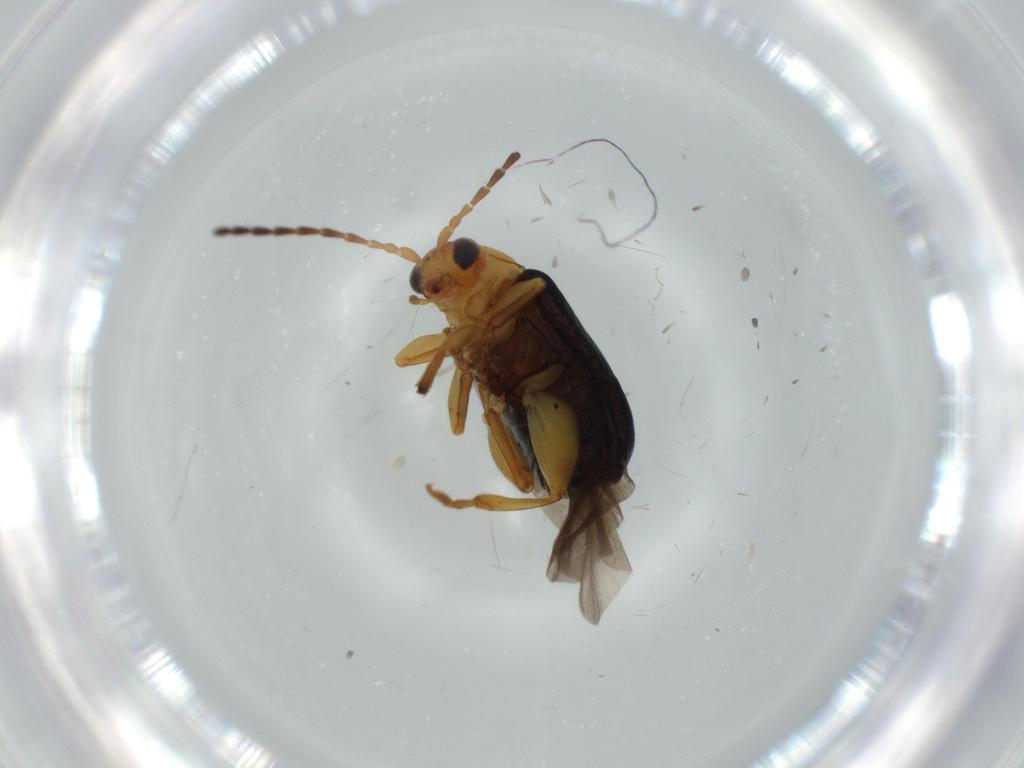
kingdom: Animalia
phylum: Arthropoda
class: Insecta
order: Coleoptera
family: Chrysomelidae
